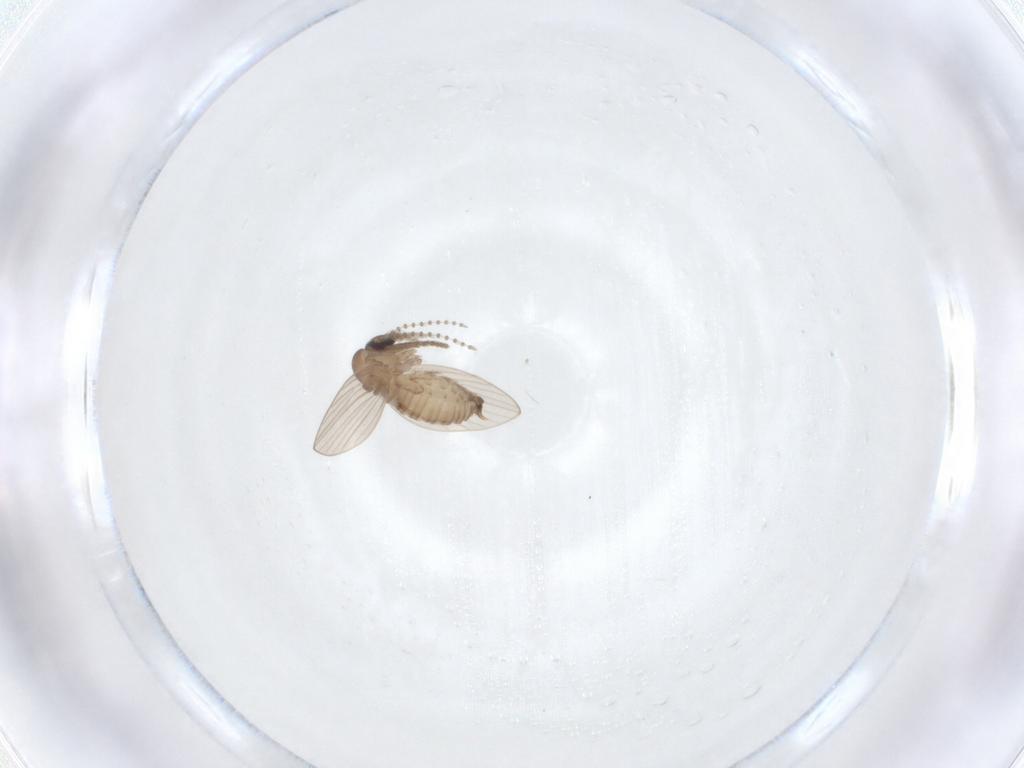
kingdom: Animalia
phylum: Arthropoda
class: Insecta
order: Diptera
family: Psychodidae
